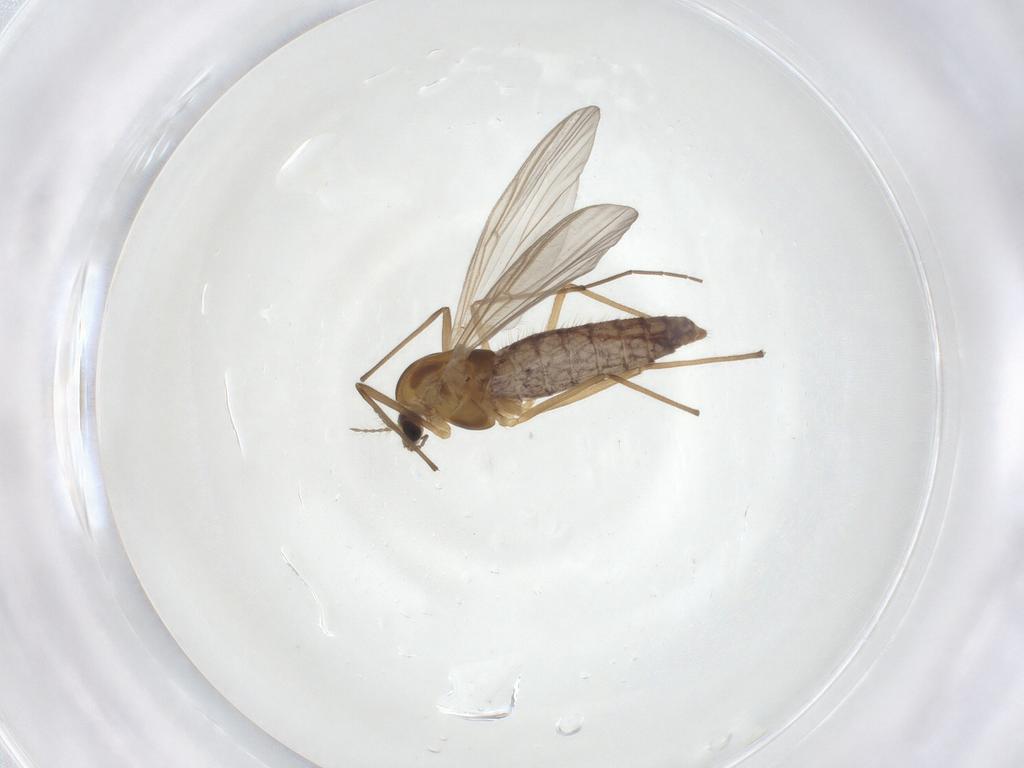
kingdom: Animalia
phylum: Arthropoda
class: Insecta
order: Diptera
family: Chironomidae
